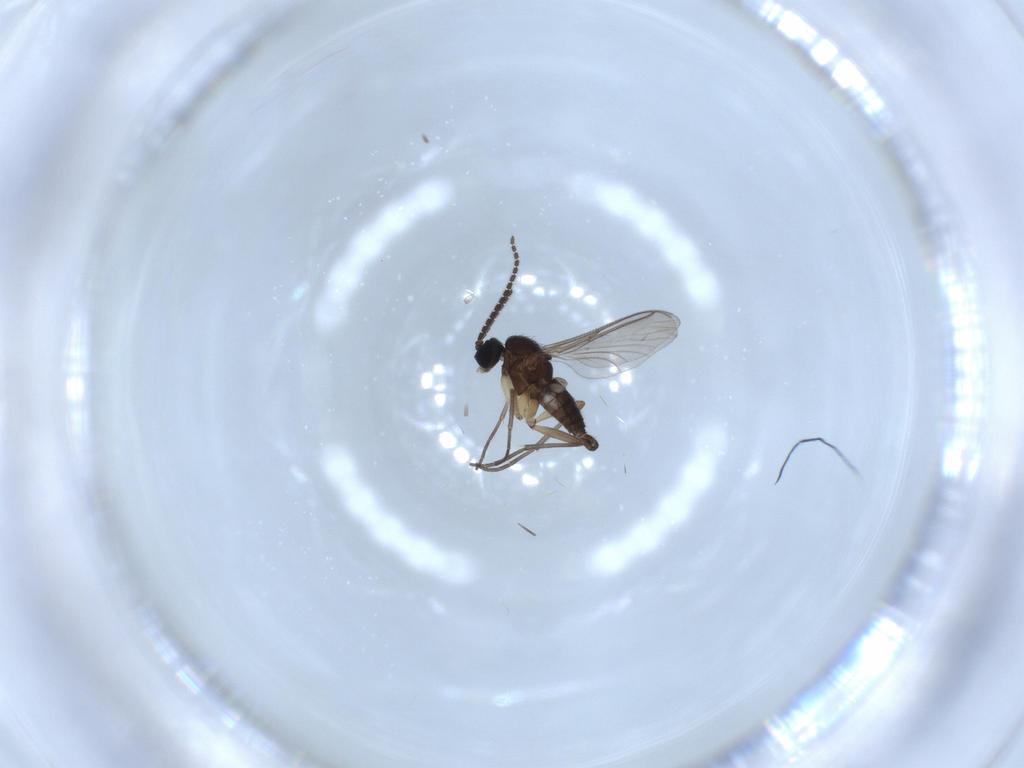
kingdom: Animalia
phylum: Arthropoda
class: Insecta
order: Diptera
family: Sciaridae
